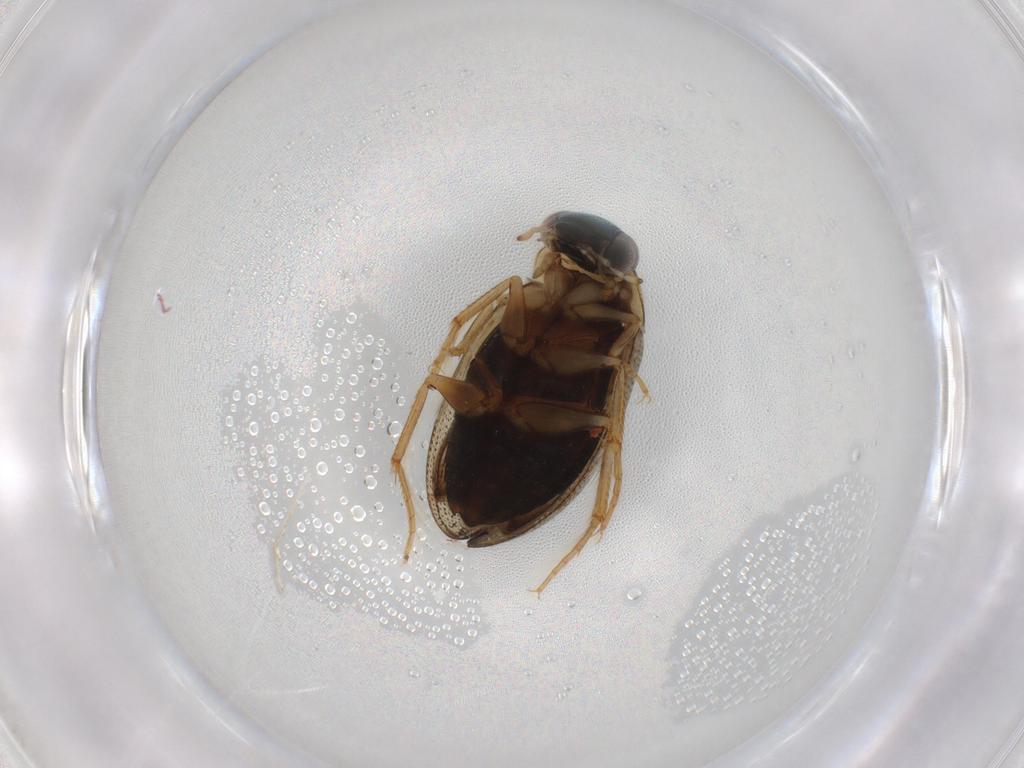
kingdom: Animalia
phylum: Arthropoda
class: Insecta
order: Coleoptera
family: Hydrophilidae
